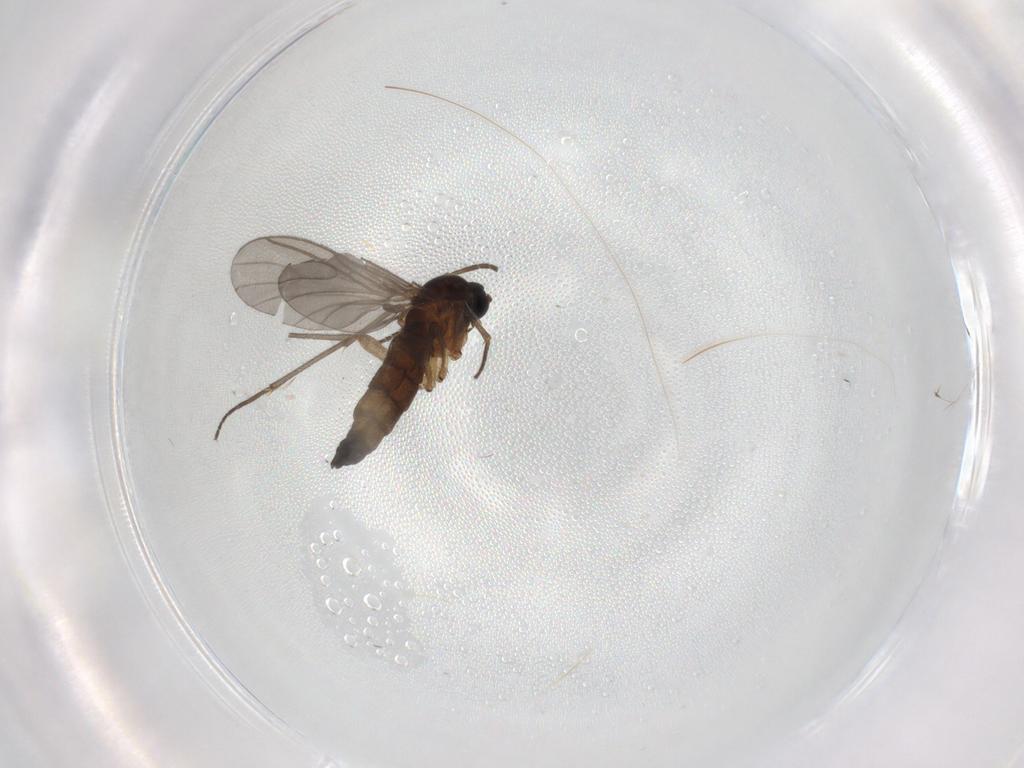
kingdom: Animalia
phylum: Arthropoda
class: Insecta
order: Diptera
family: Sciaridae
